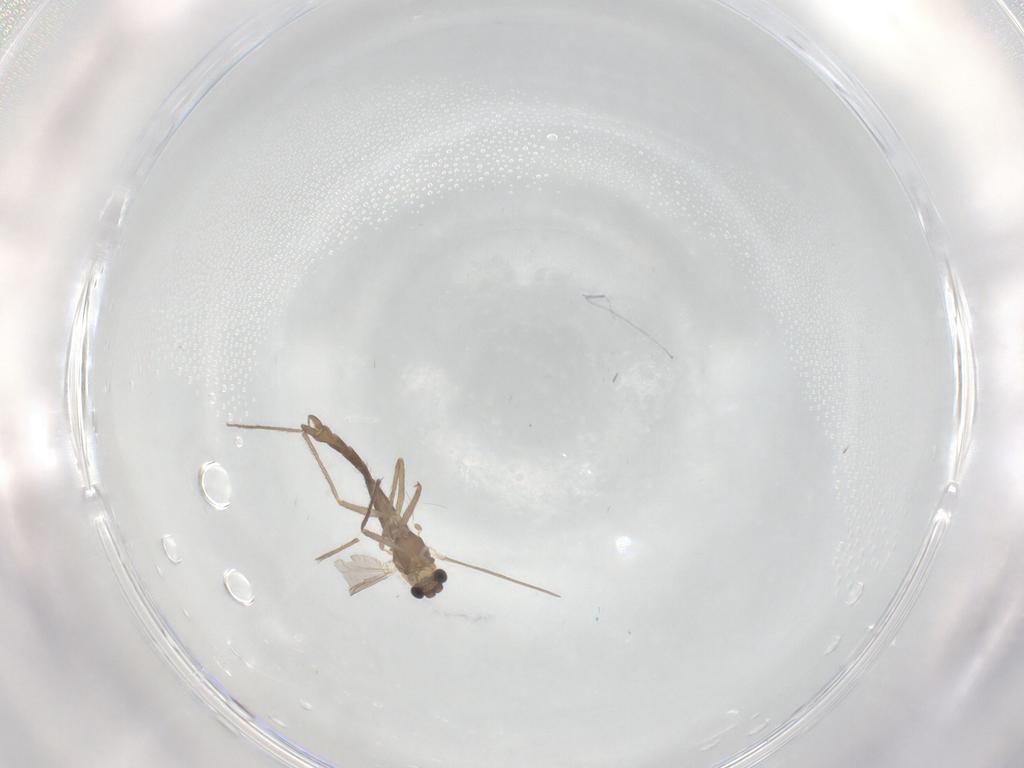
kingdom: Animalia
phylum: Arthropoda
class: Insecta
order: Diptera
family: Chironomidae
